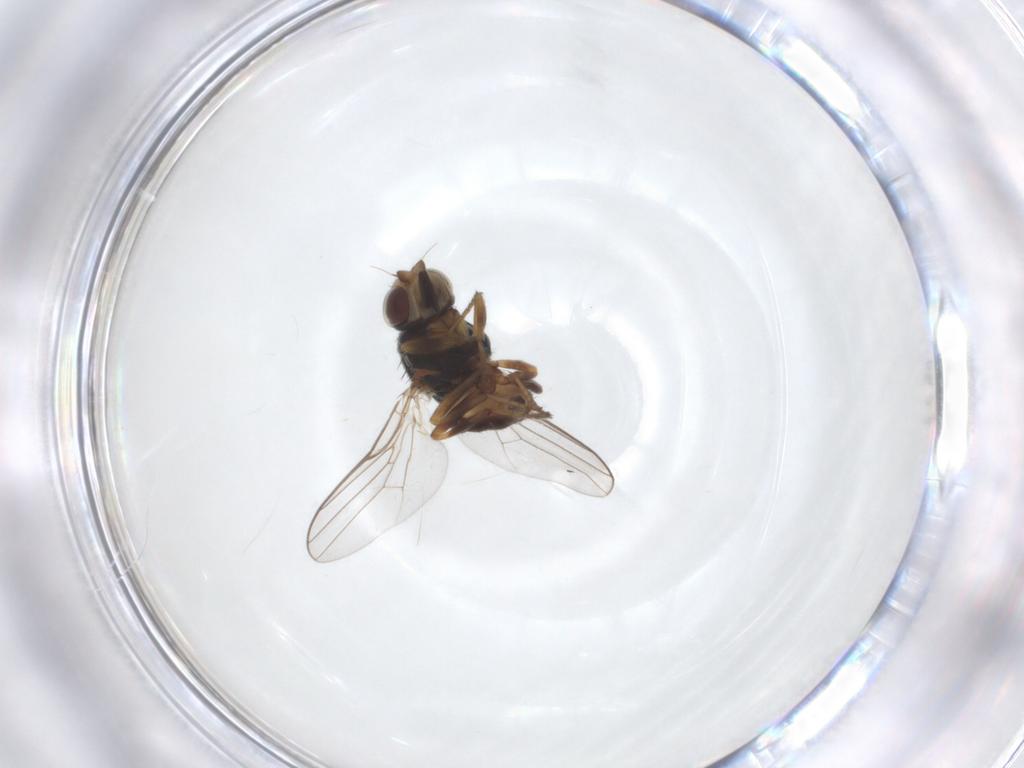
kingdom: Animalia
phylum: Arthropoda
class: Insecta
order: Diptera
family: Chloropidae
